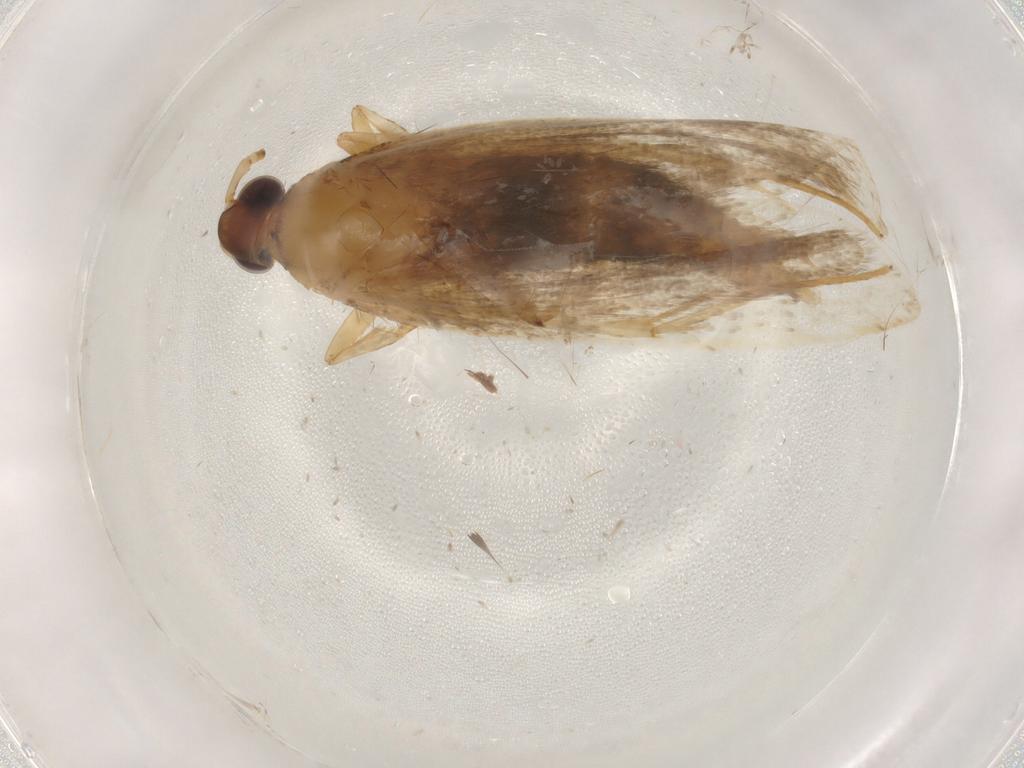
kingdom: Animalia
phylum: Arthropoda
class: Insecta
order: Lepidoptera
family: Lecithoceridae
